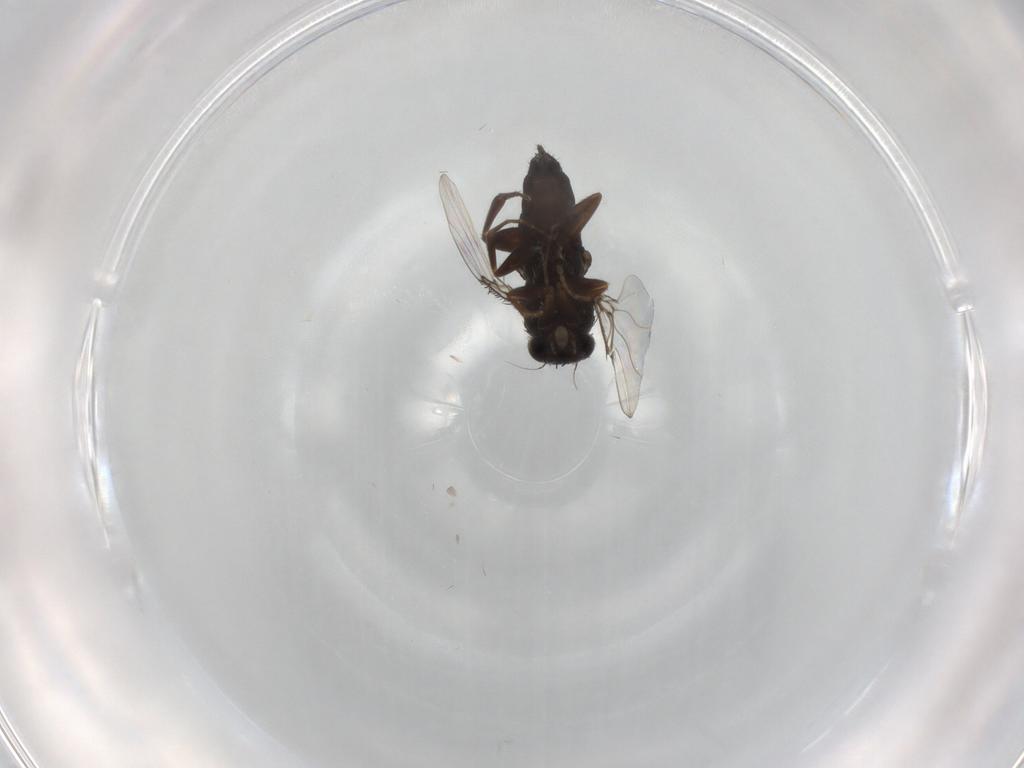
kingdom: Animalia
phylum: Arthropoda
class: Insecta
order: Diptera
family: Phoridae
